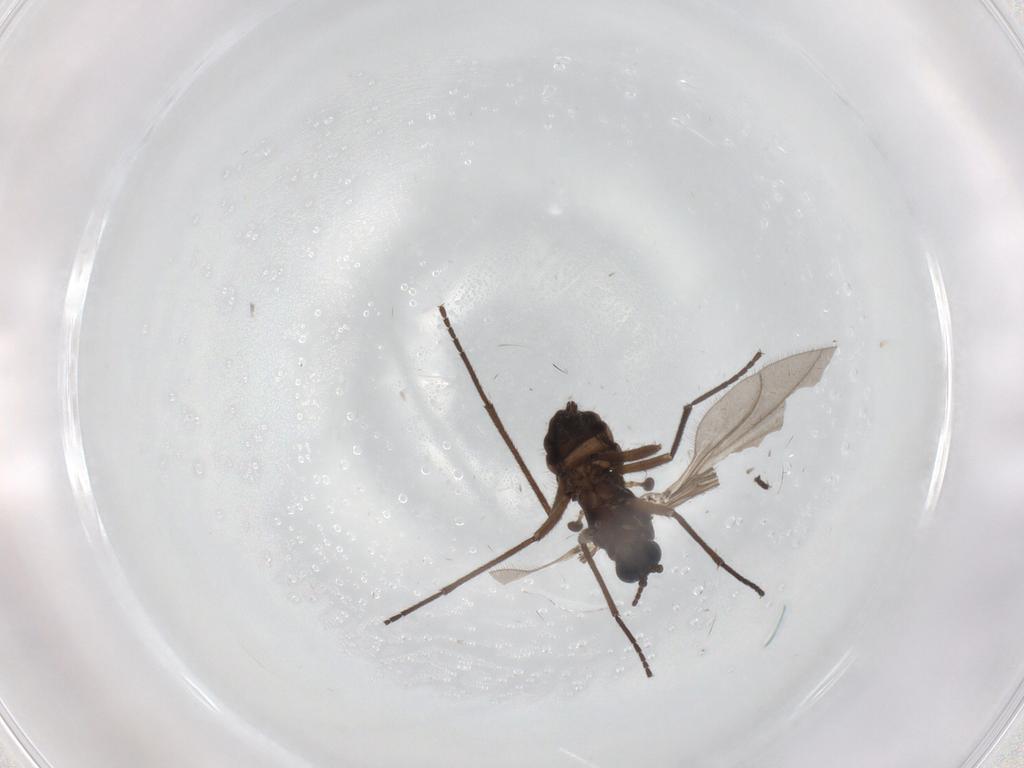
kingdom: Animalia
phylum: Arthropoda
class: Insecta
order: Diptera
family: Sciaridae
